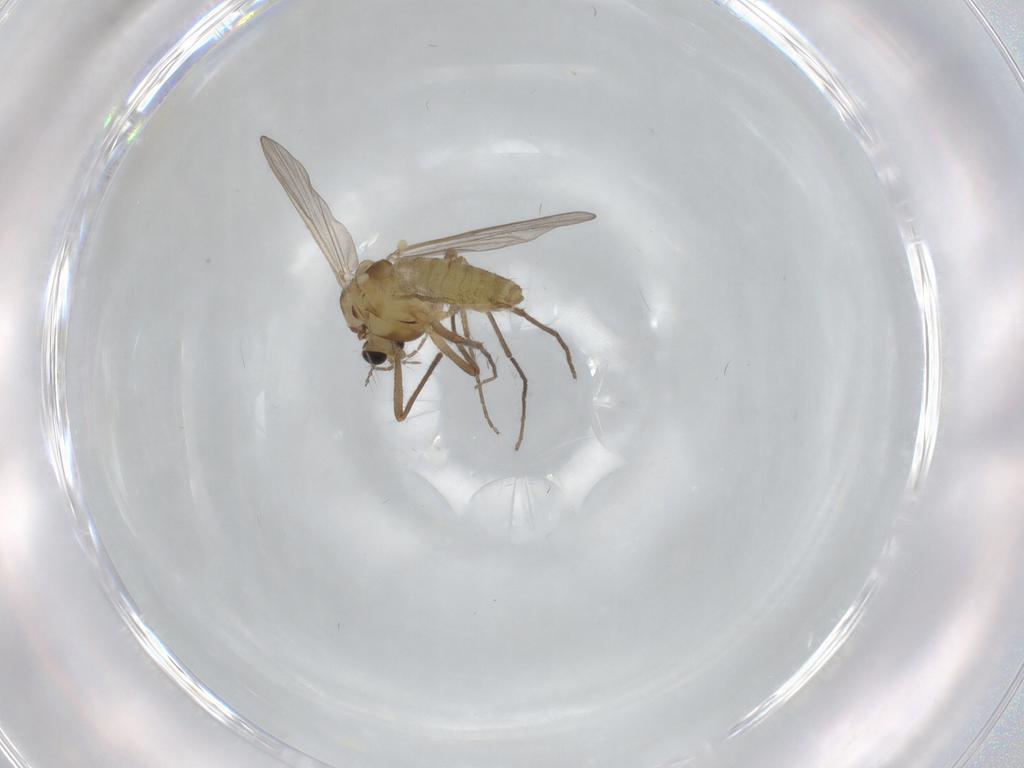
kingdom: Animalia
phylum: Arthropoda
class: Insecta
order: Diptera
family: Chironomidae
